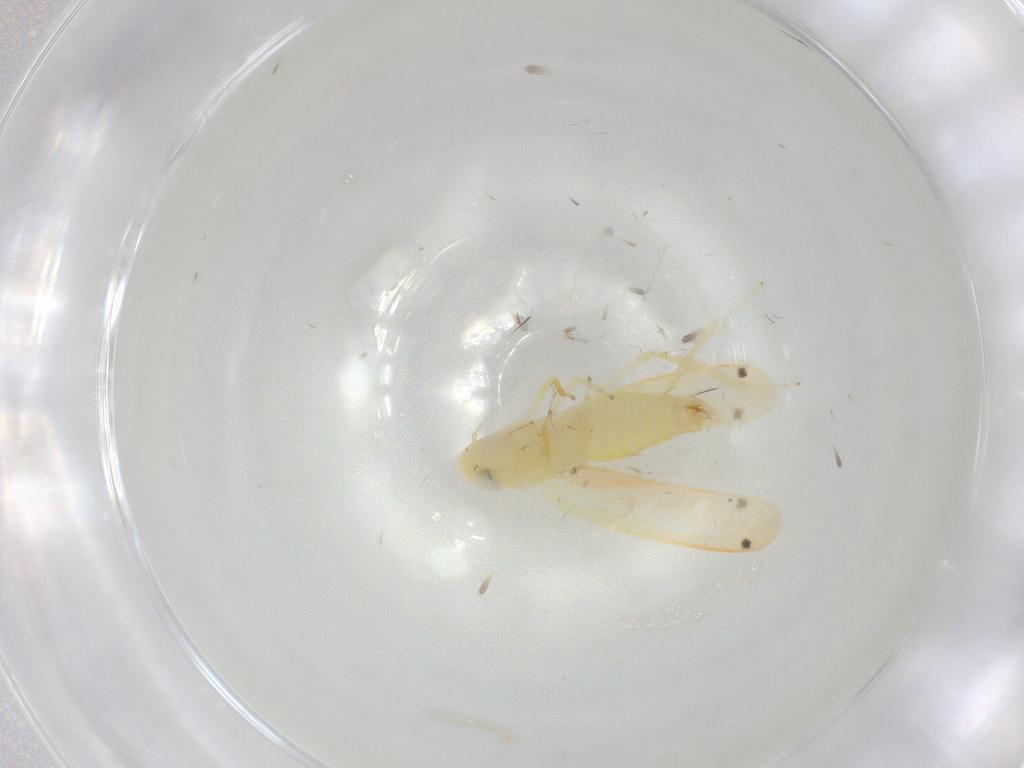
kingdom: Animalia
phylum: Arthropoda
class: Insecta
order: Hemiptera
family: Cicadellidae
